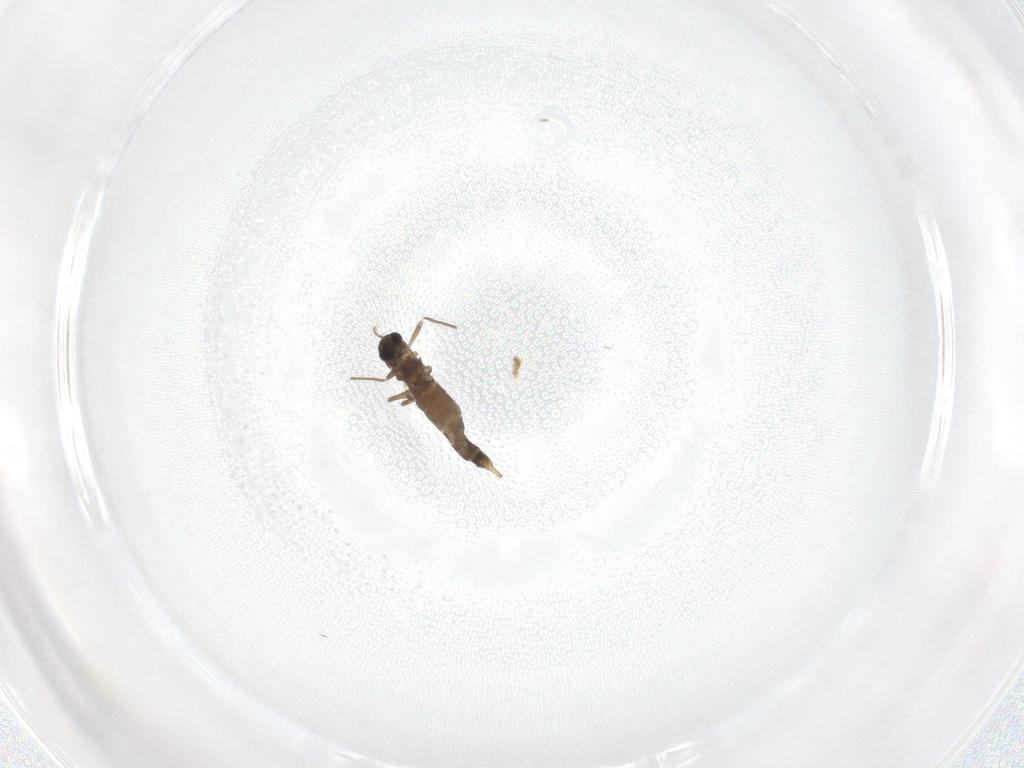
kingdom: Animalia
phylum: Arthropoda
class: Insecta
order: Diptera
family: Chironomidae
